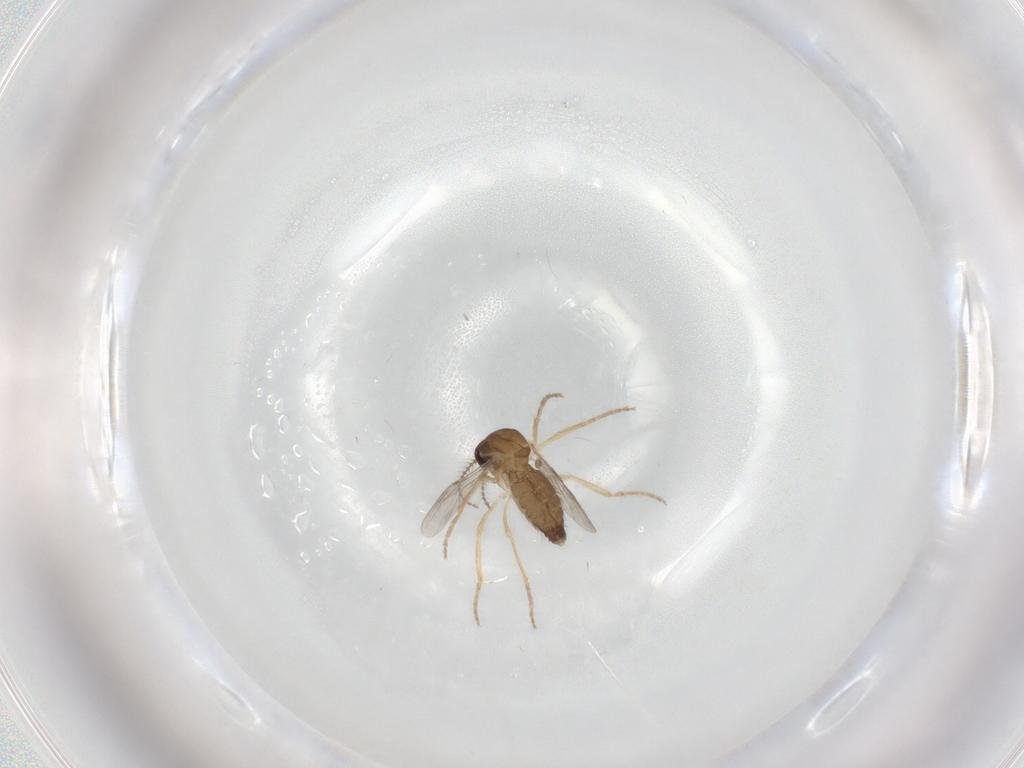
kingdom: Animalia
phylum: Arthropoda
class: Insecta
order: Diptera
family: Ceratopogonidae
